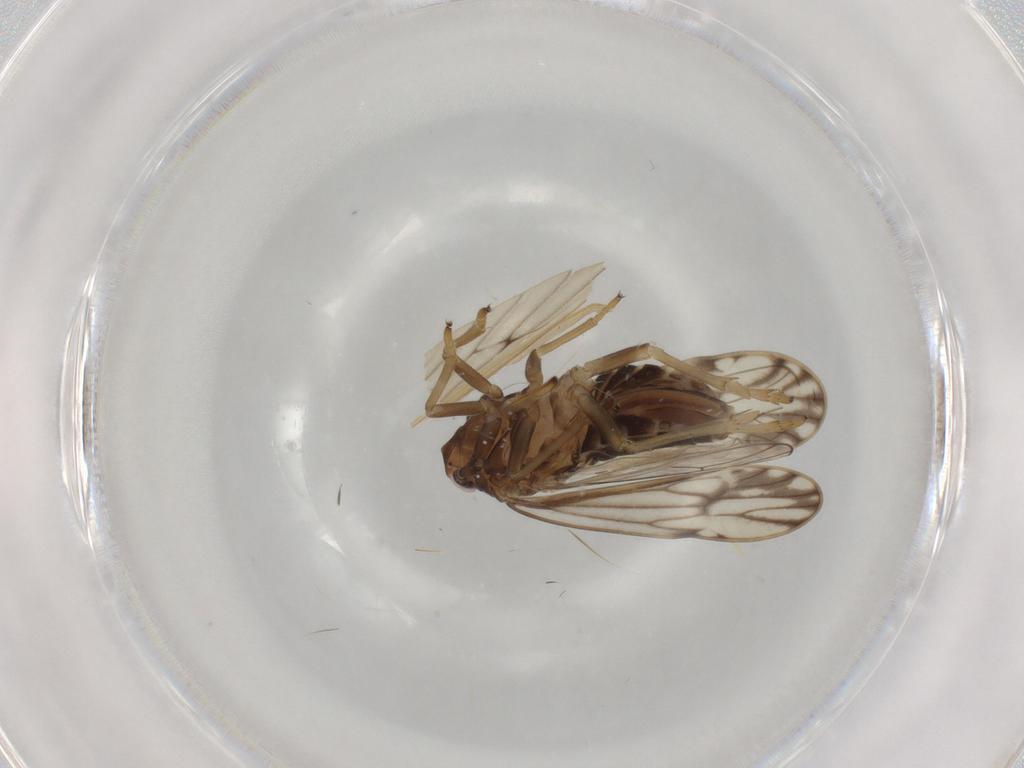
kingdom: Animalia
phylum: Arthropoda
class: Insecta
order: Hemiptera
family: Delphacidae
